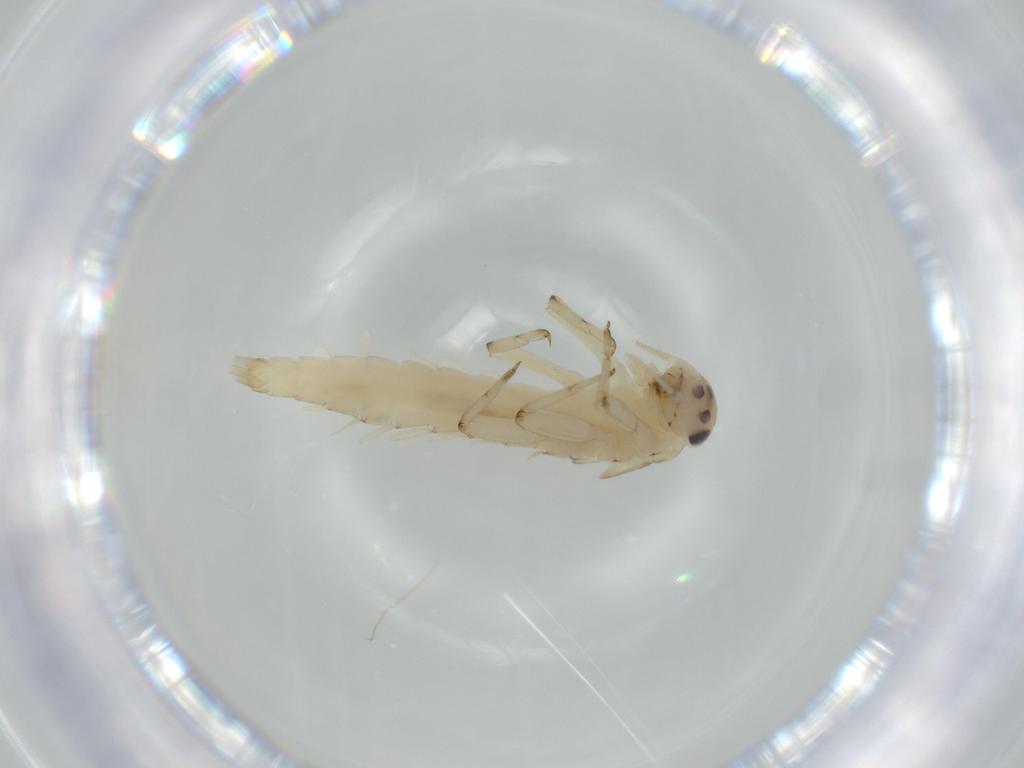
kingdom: Animalia
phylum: Arthropoda
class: Insecta
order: Ephemeroptera
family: Baetidae
